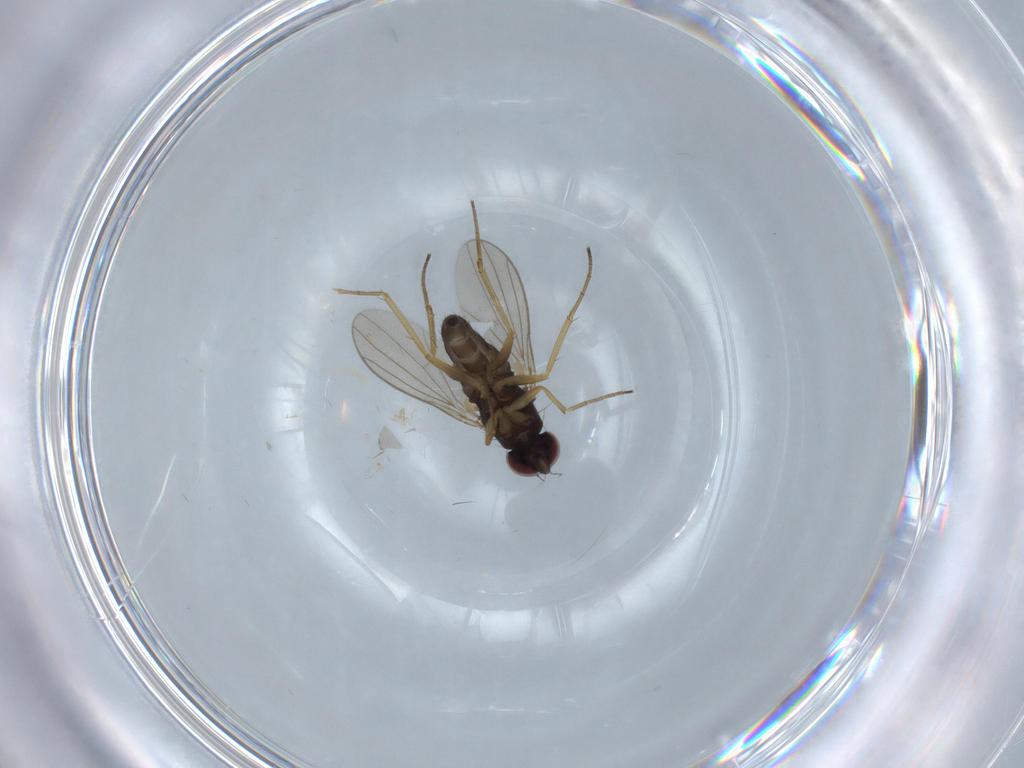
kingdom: Animalia
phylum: Arthropoda
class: Insecta
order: Diptera
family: Dolichopodidae
